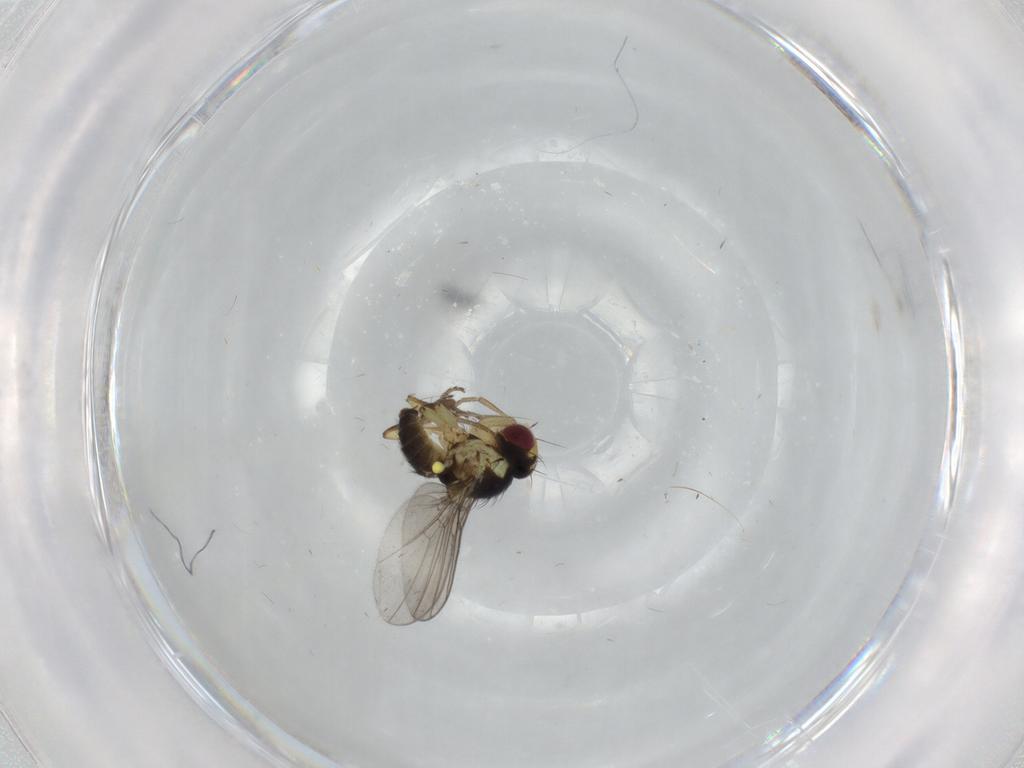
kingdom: Animalia
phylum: Arthropoda
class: Insecta
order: Diptera
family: Agromyzidae
